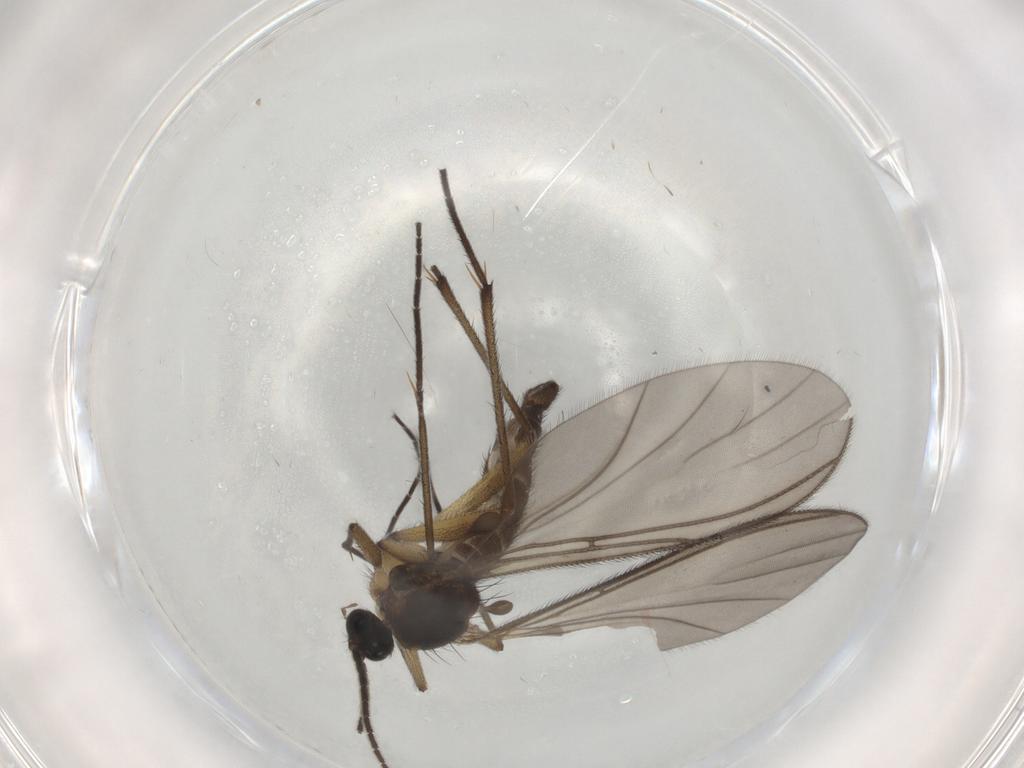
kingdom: Animalia
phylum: Arthropoda
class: Insecta
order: Diptera
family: Sciaridae
